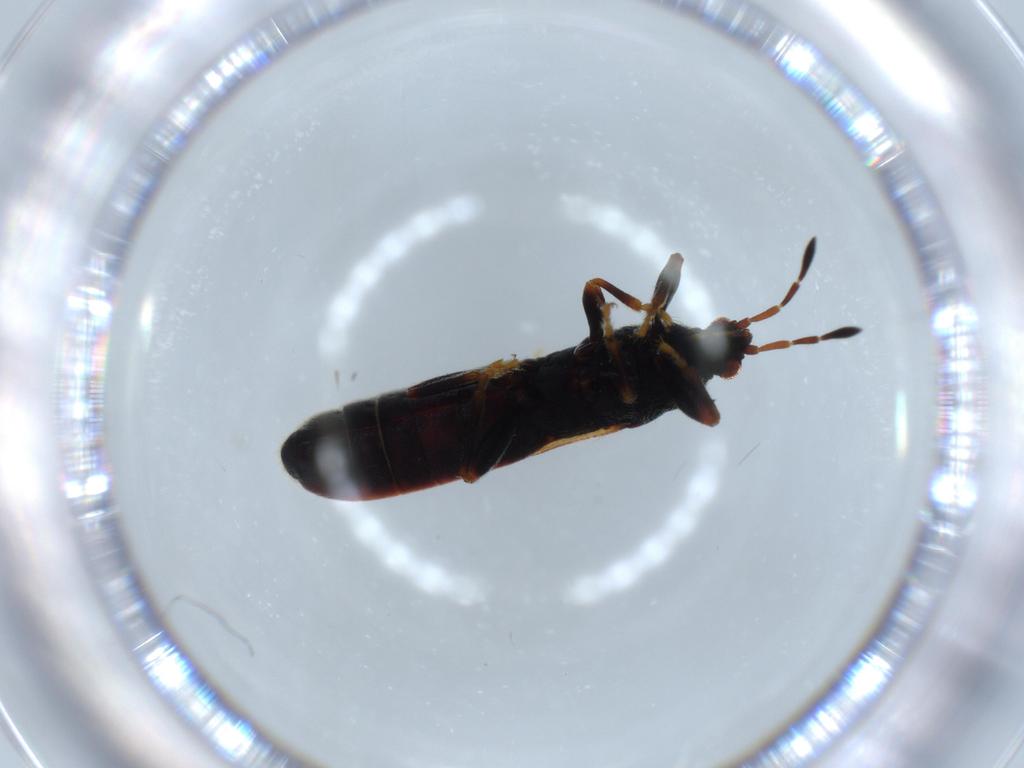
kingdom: Animalia
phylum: Arthropoda
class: Insecta
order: Hemiptera
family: Blissidae
